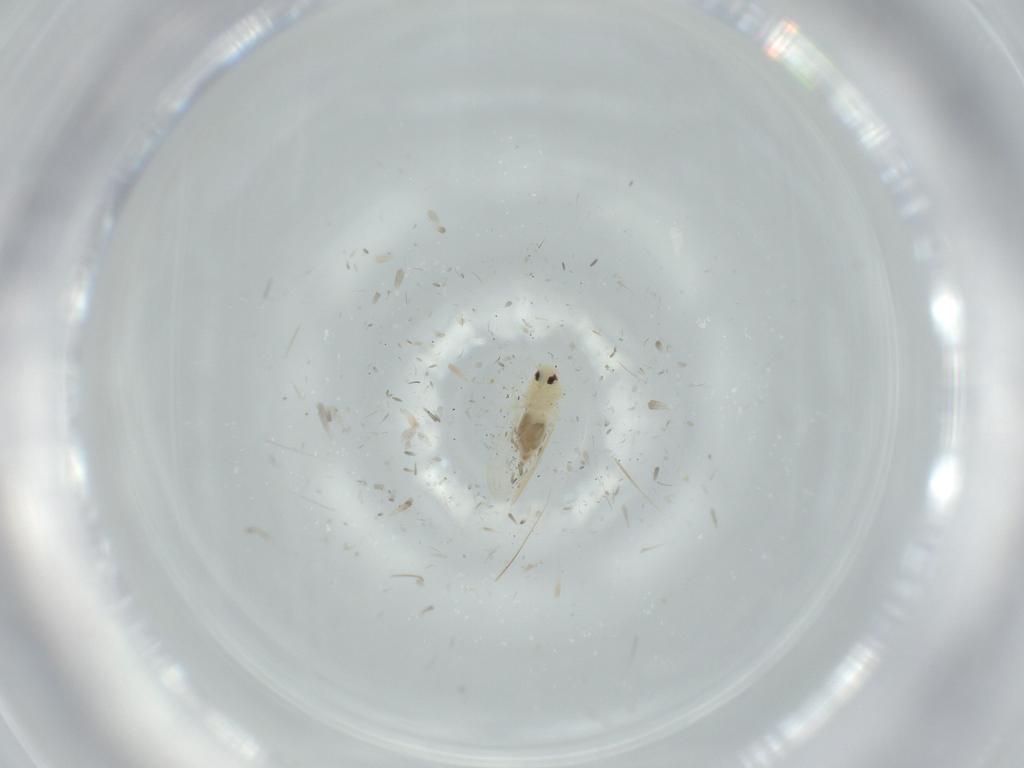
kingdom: Animalia
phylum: Arthropoda
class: Insecta
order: Hemiptera
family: Aleyrodidae
